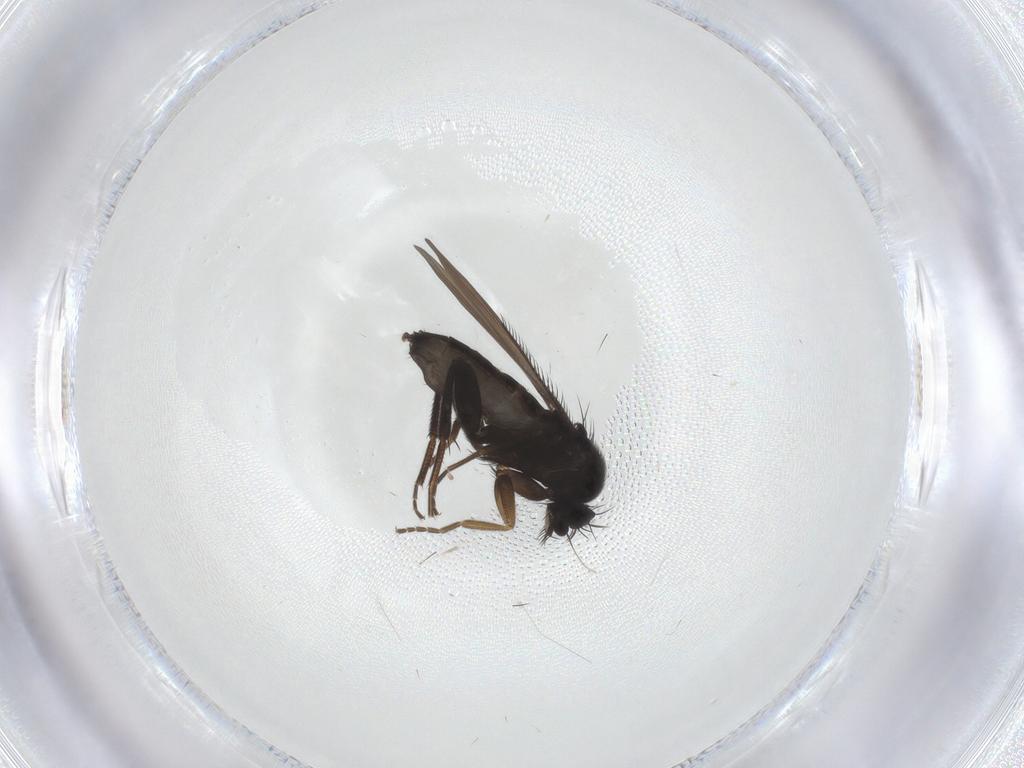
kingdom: Animalia
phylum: Arthropoda
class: Insecta
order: Diptera
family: Phoridae
